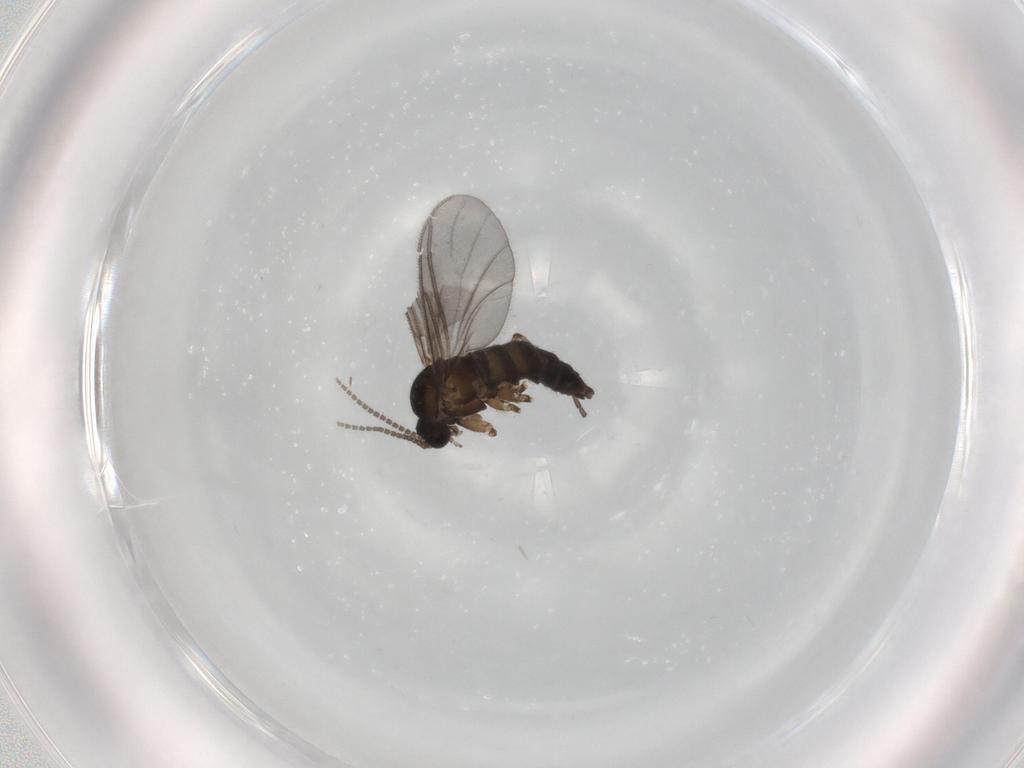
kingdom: Animalia
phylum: Arthropoda
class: Insecta
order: Diptera
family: Sciaridae
